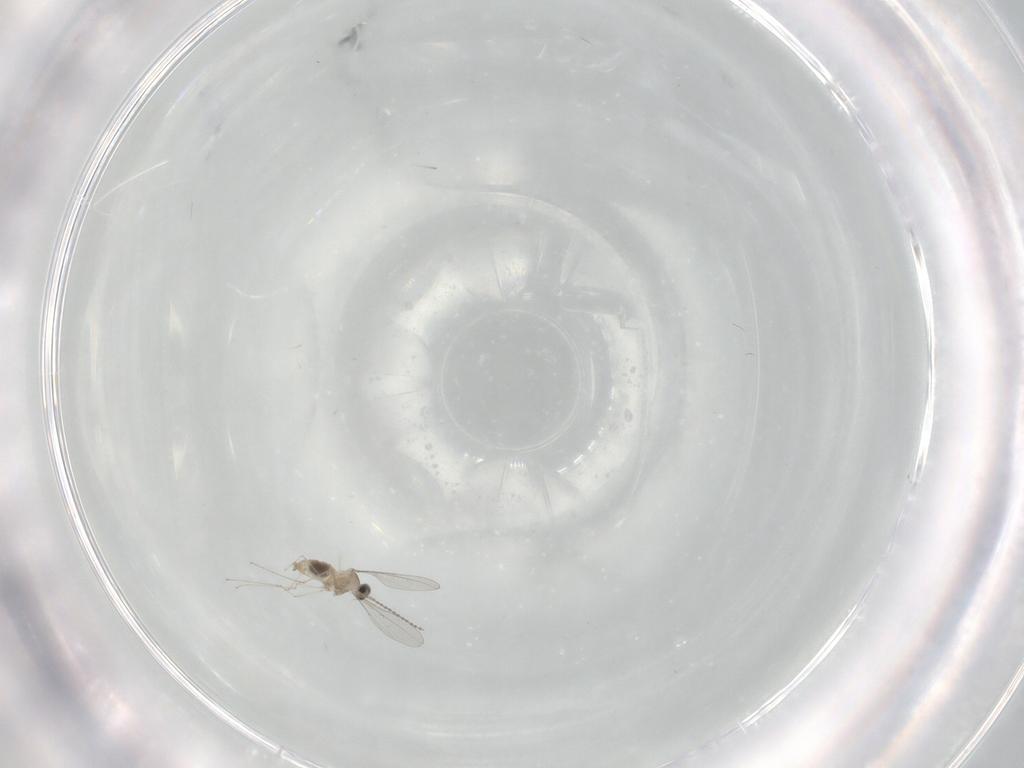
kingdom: Animalia
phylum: Arthropoda
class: Insecta
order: Diptera
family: Cecidomyiidae
